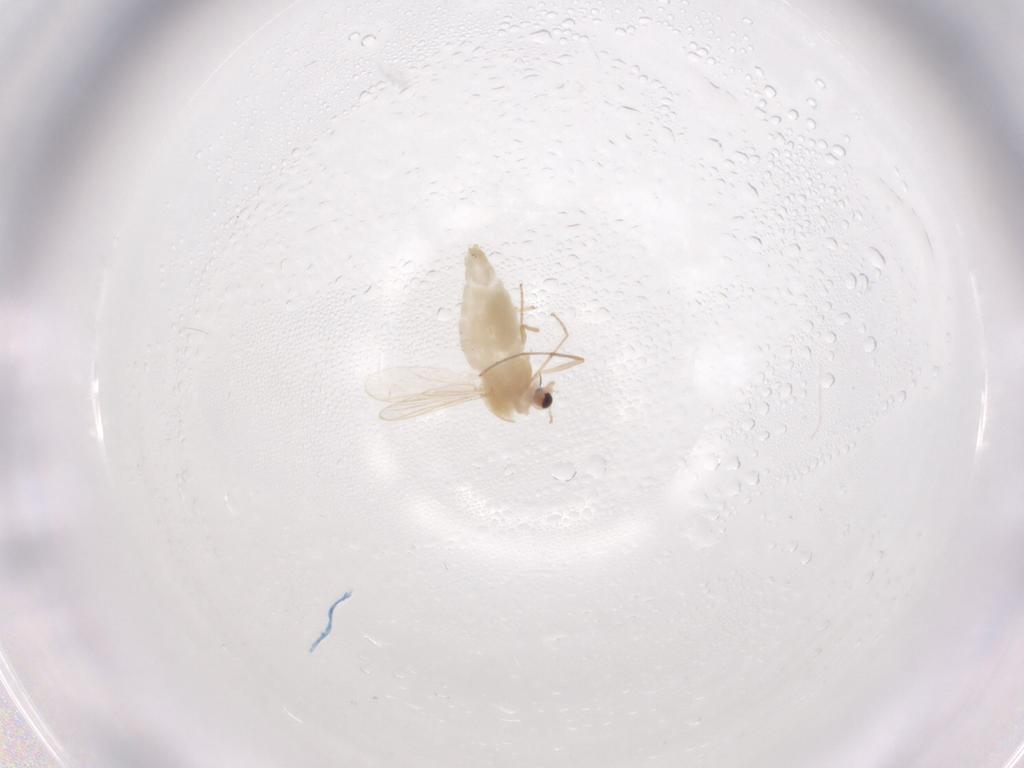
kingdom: Animalia
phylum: Arthropoda
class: Insecta
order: Diptera
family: Chironomidae
